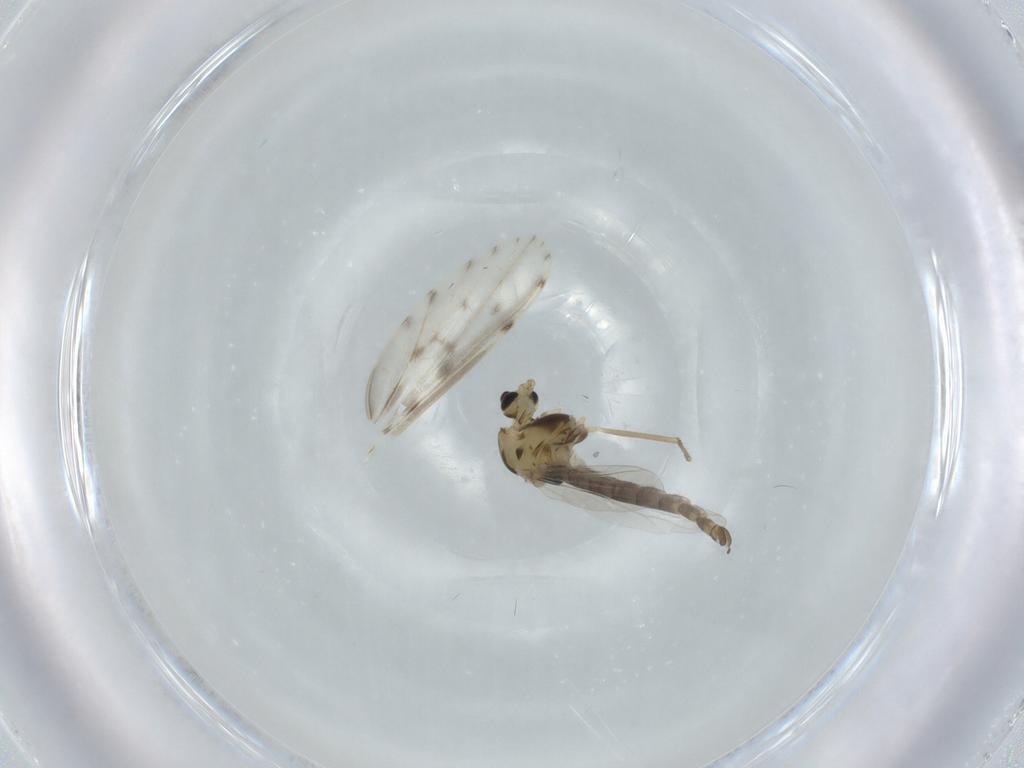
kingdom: Animalia
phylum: Arthropoda
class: Insecta
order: Diptera
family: Chironomidae
